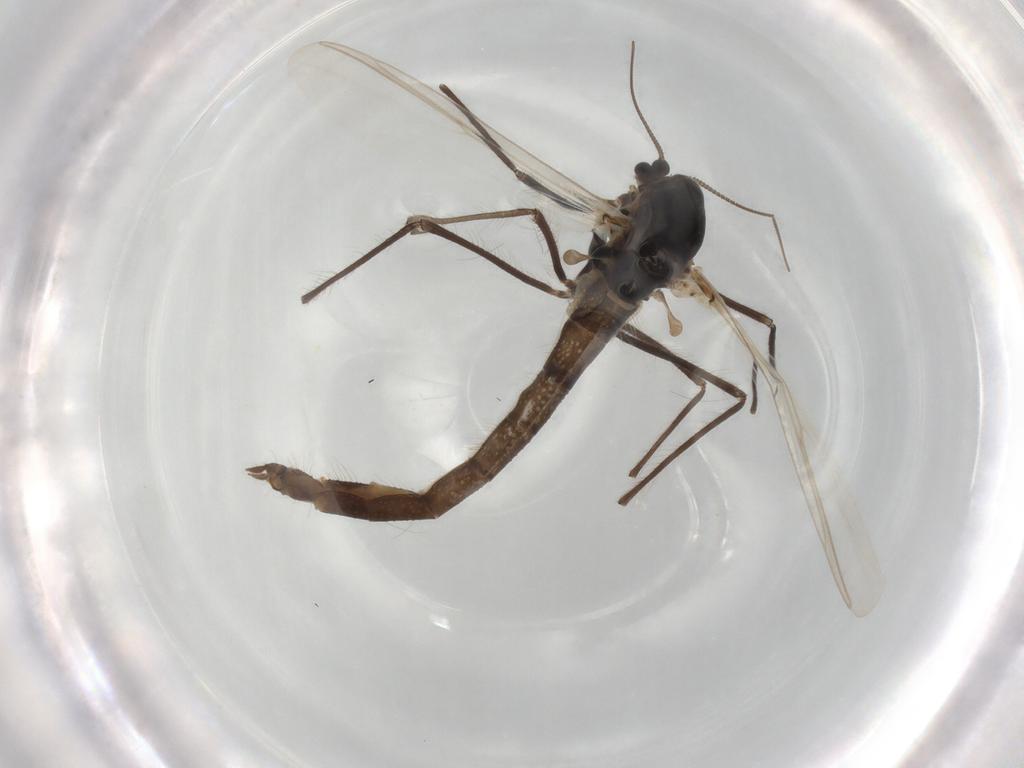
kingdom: Animalia
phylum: Arthropoda
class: Insecta
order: Diptera
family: Chironomidae
